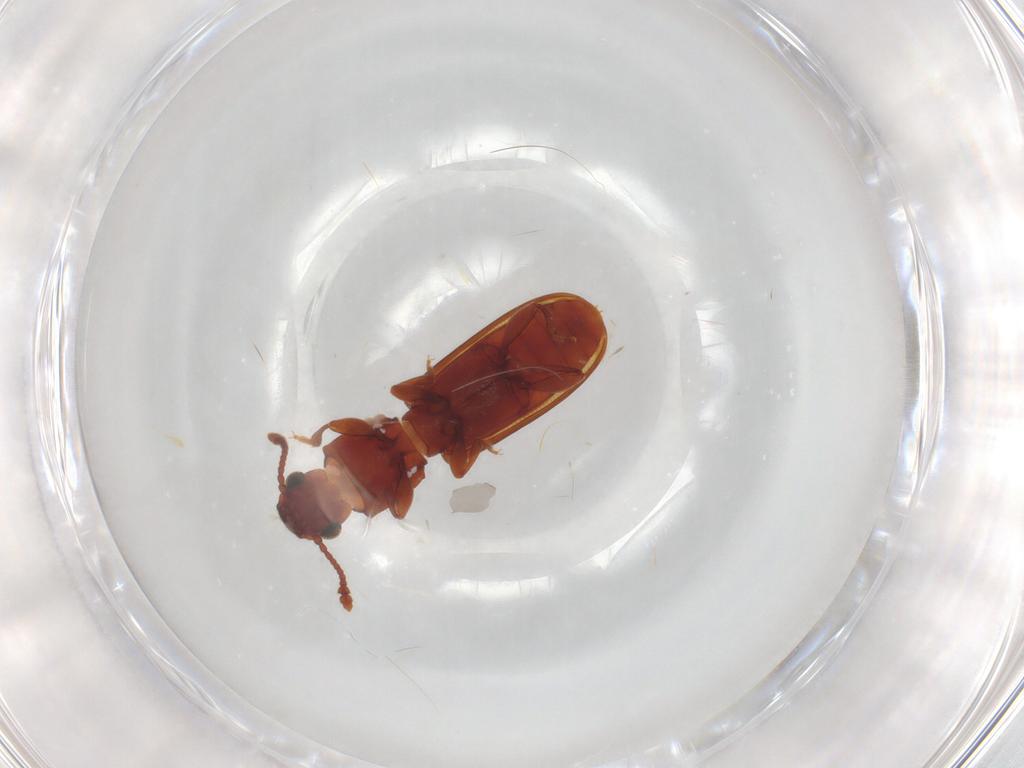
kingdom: Animalia
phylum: Arthropoda
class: Insecta
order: Coleoptera
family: Silvanidae
